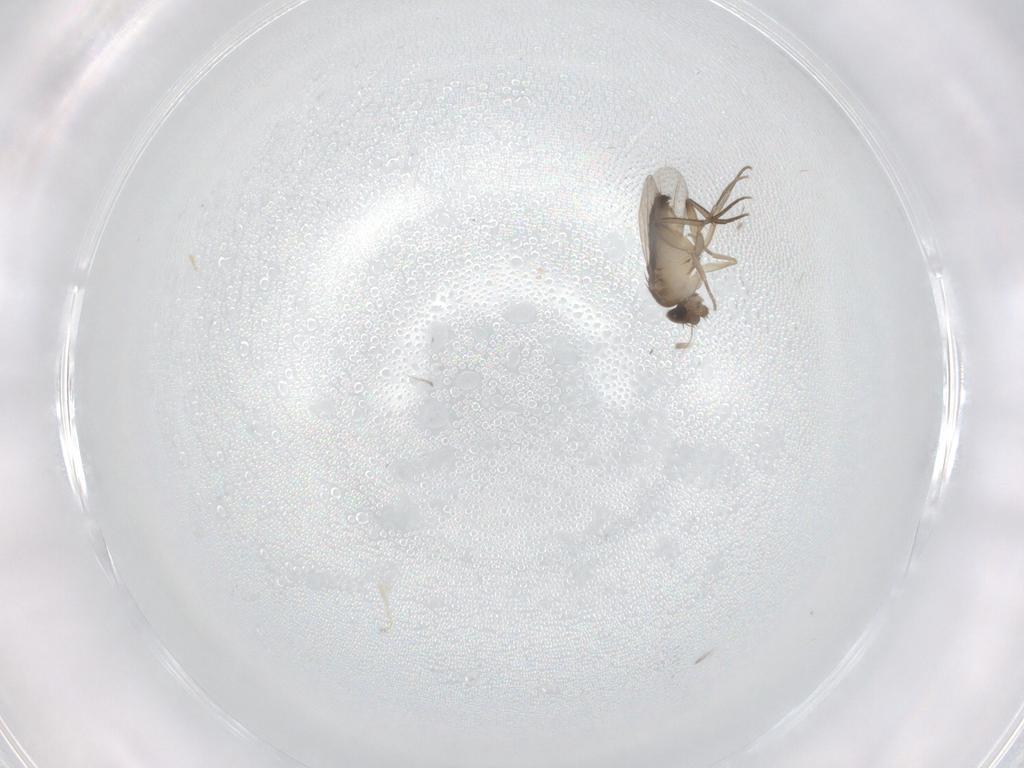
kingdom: Animalia
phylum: Arthropoda
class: Insecta
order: Diptera
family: Phoridae
